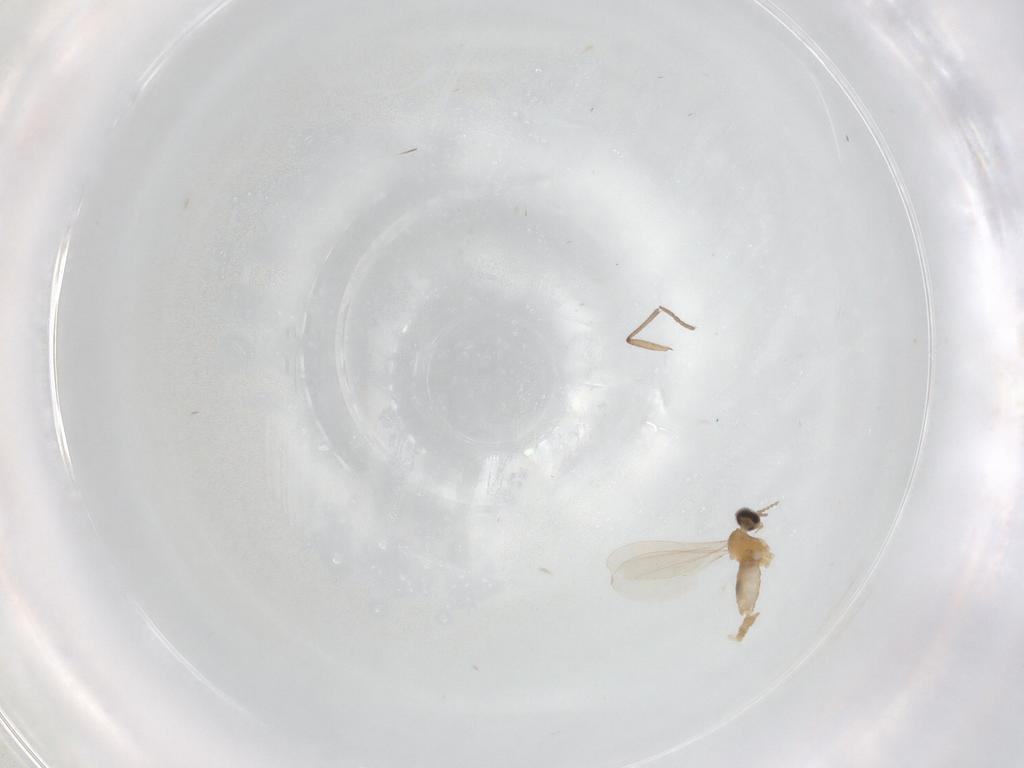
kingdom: Animalia
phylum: Arthropoda
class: Insecta
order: Diptera
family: Sciaridae
